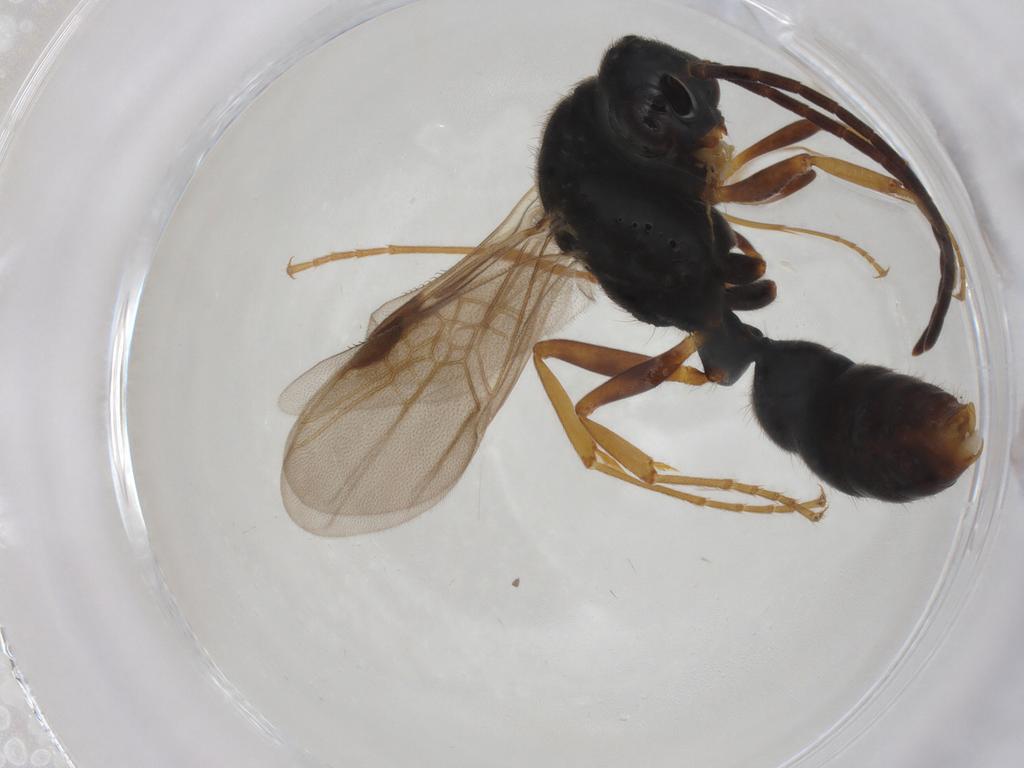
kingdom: Animalia
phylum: Arthropoda
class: Insecta
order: Hymenoptera
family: Formicidae
